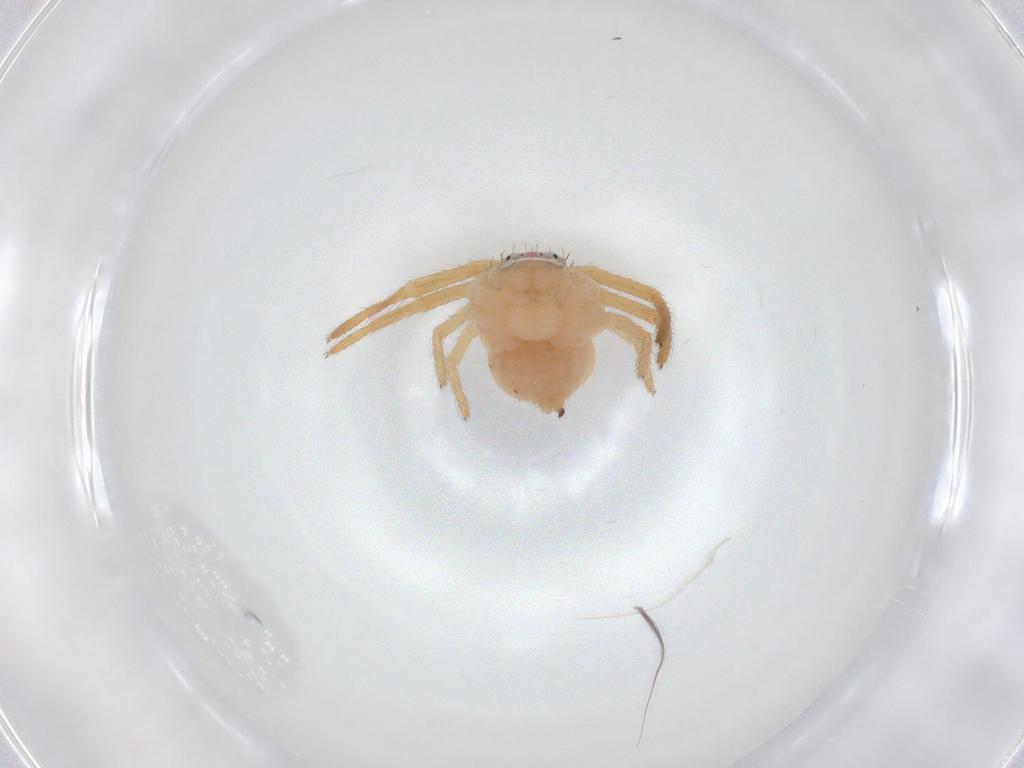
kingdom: Animalia
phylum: Arthropoda
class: Arachnida
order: Araneae
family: Thomisidae
